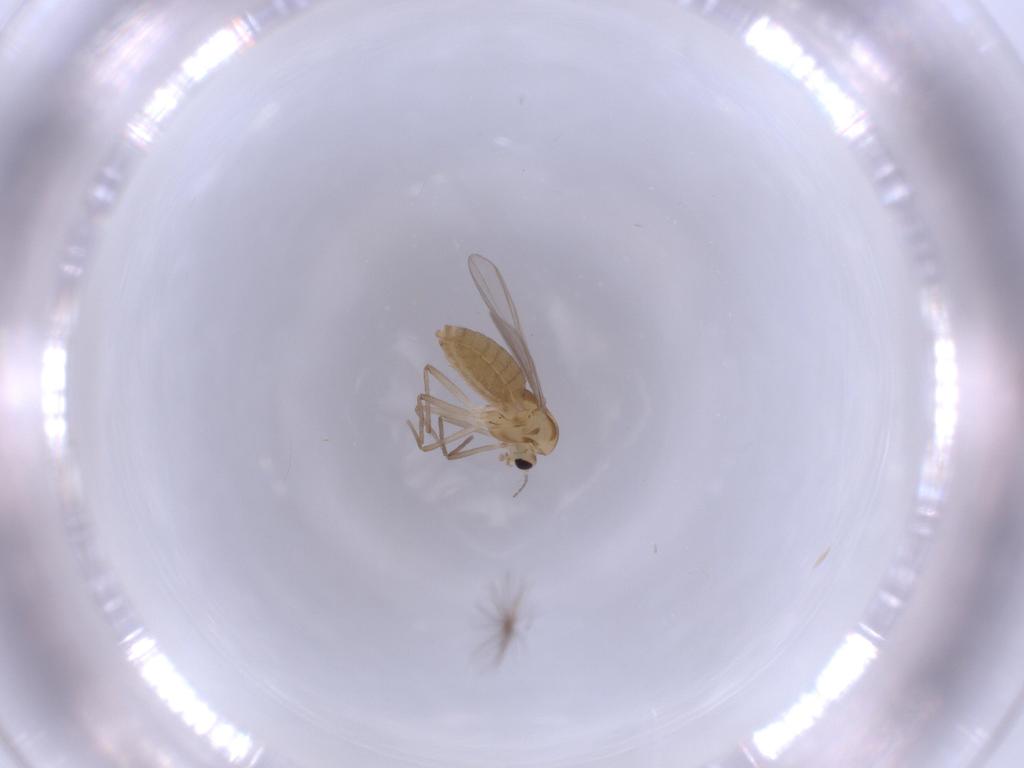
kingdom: Animalia
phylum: Arthropoda
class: Insecta
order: Diptera
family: Chironomidae
